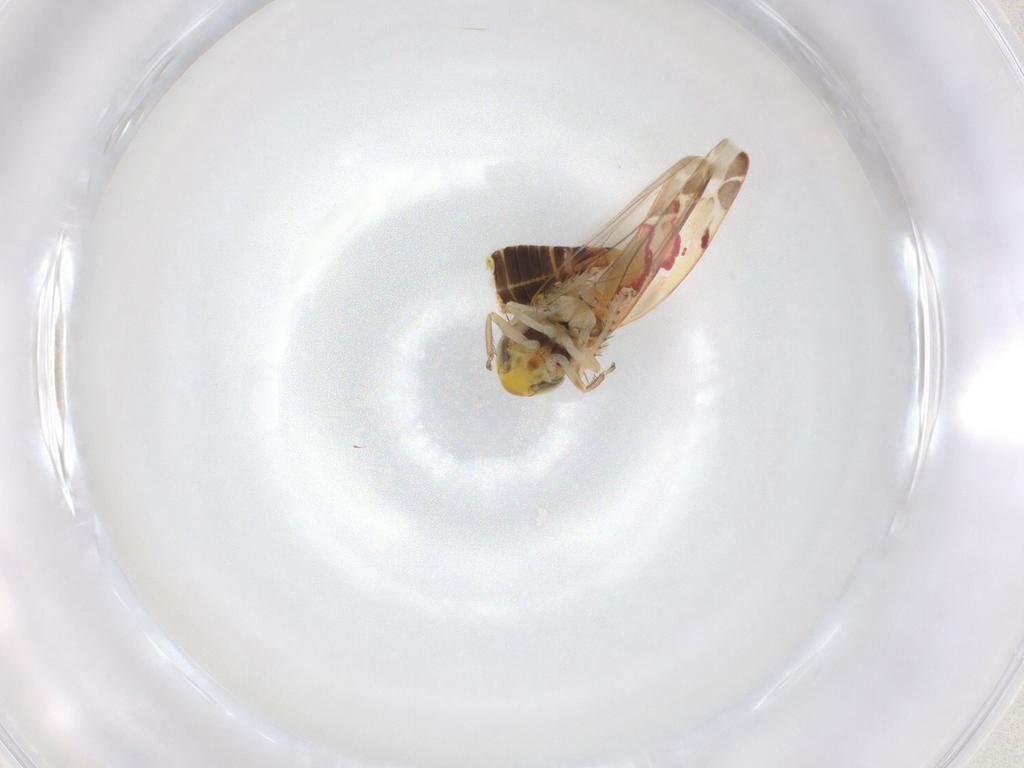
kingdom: Animalia
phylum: Arthropoda
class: Insecta
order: Hemiptera
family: Cicadellidae
